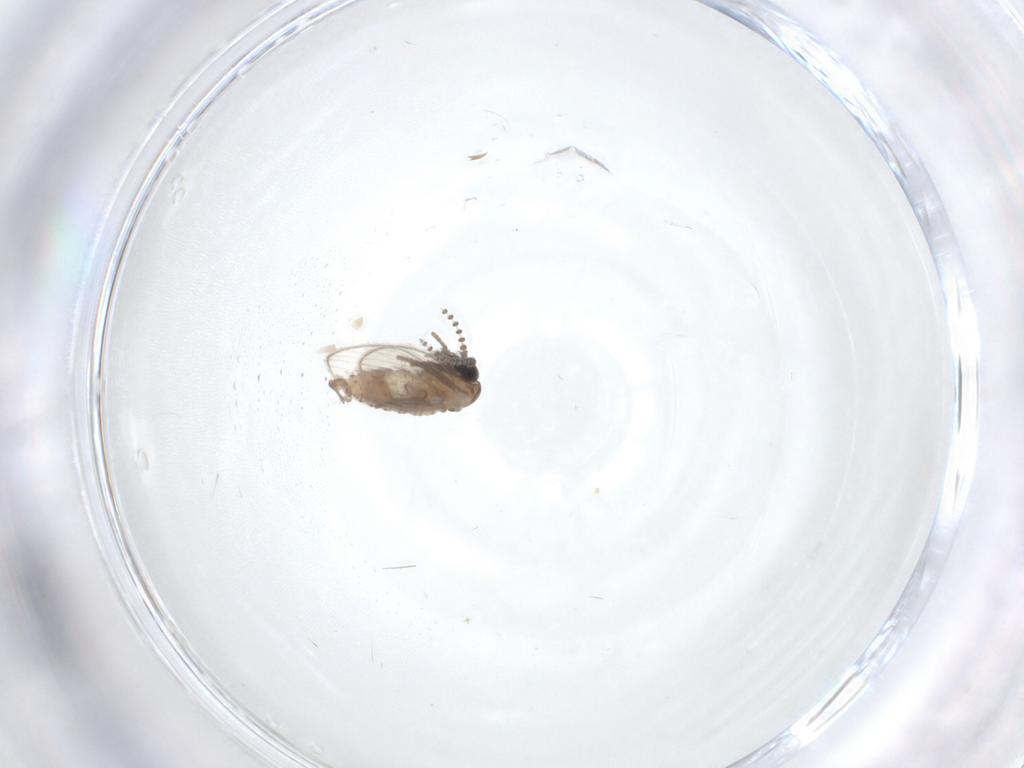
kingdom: Animalia
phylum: Arthropoda
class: Insecta
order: Diptera
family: Psychodidae
